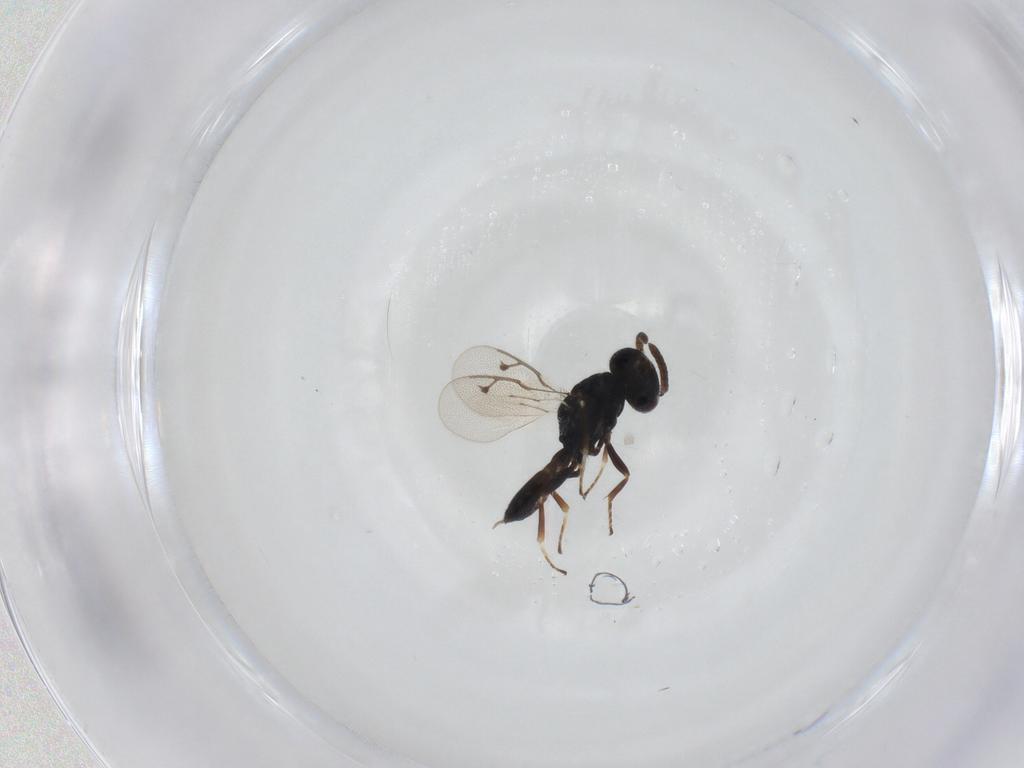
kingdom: Animalia
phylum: Arthropoda
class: Insecta
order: Hymenoptera
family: Pteromalidae
